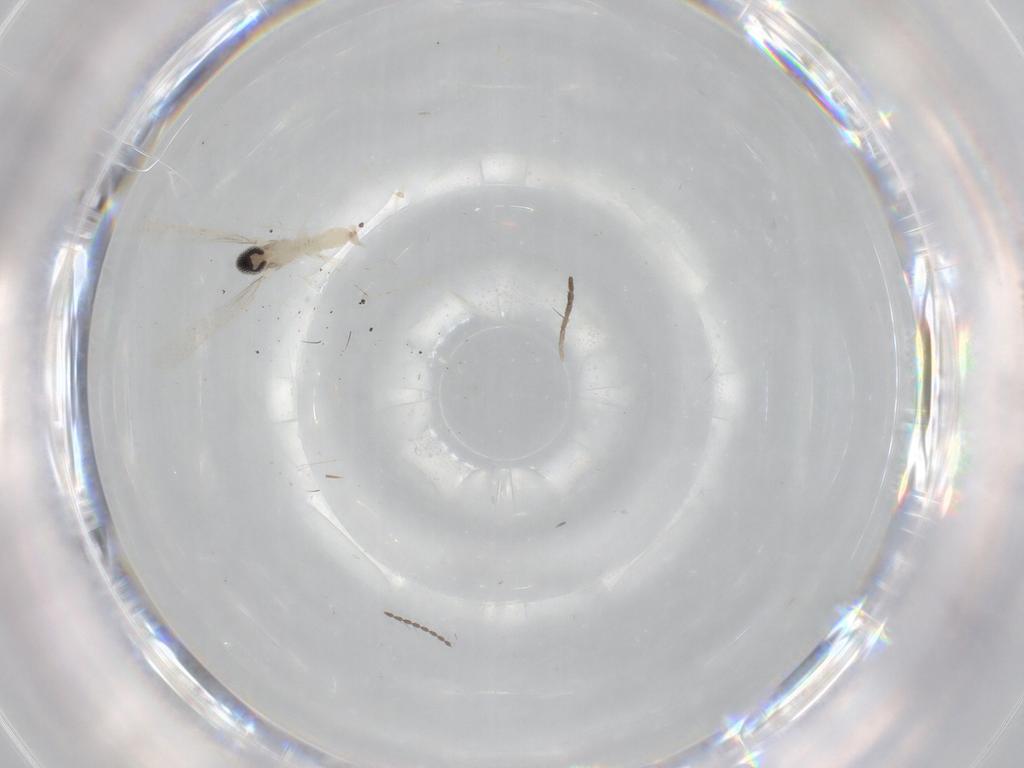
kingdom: Animalia
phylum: Arthropoda
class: Insecta
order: Diptera
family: Cecidomyiidae
